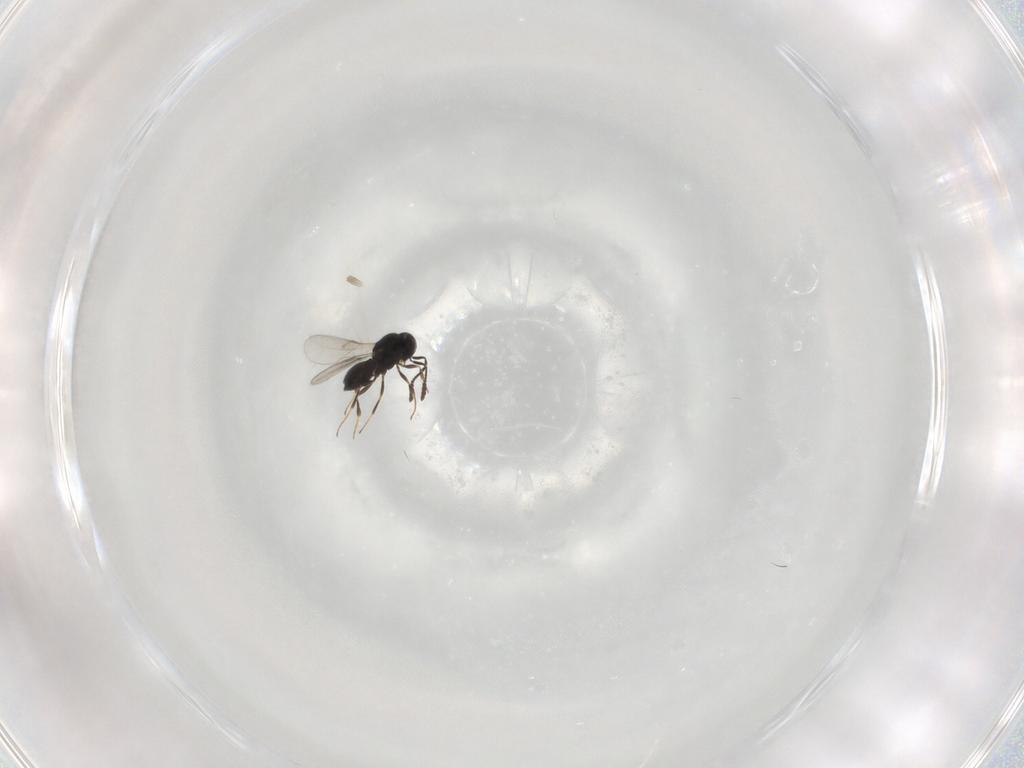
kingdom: Animalia
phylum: Arthropoda
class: Insecta
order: Hymenoptera
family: Scelionidae
